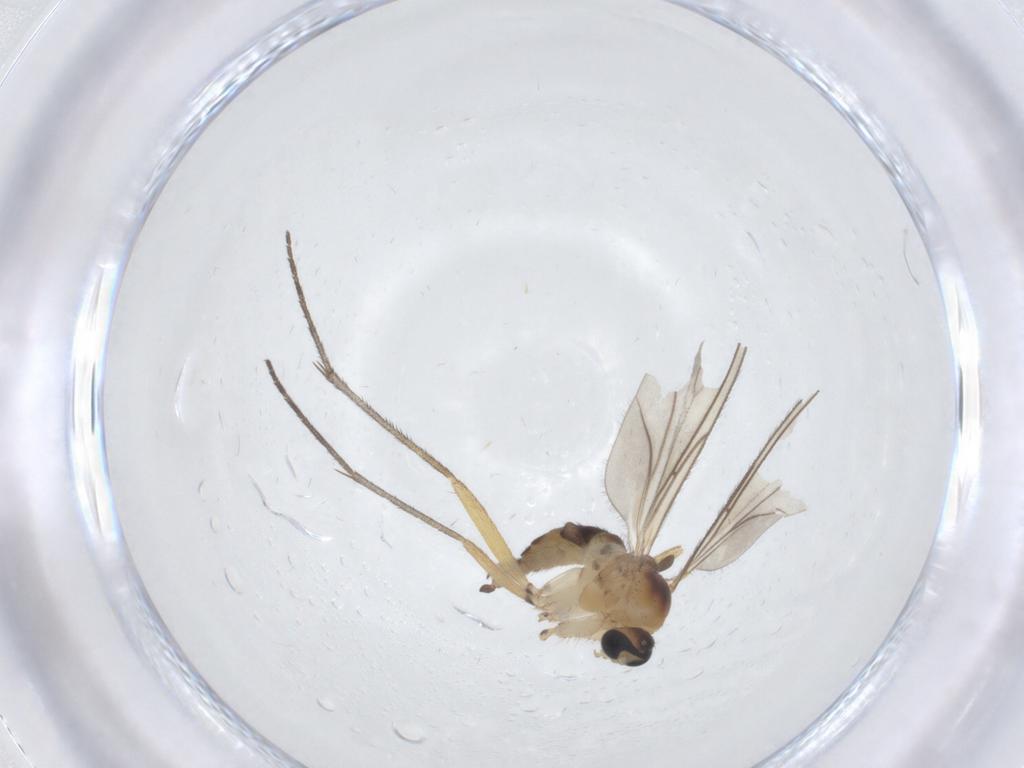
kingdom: Animalia
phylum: Arthropoda
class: Insecta
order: Diptera
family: Sciaridae
